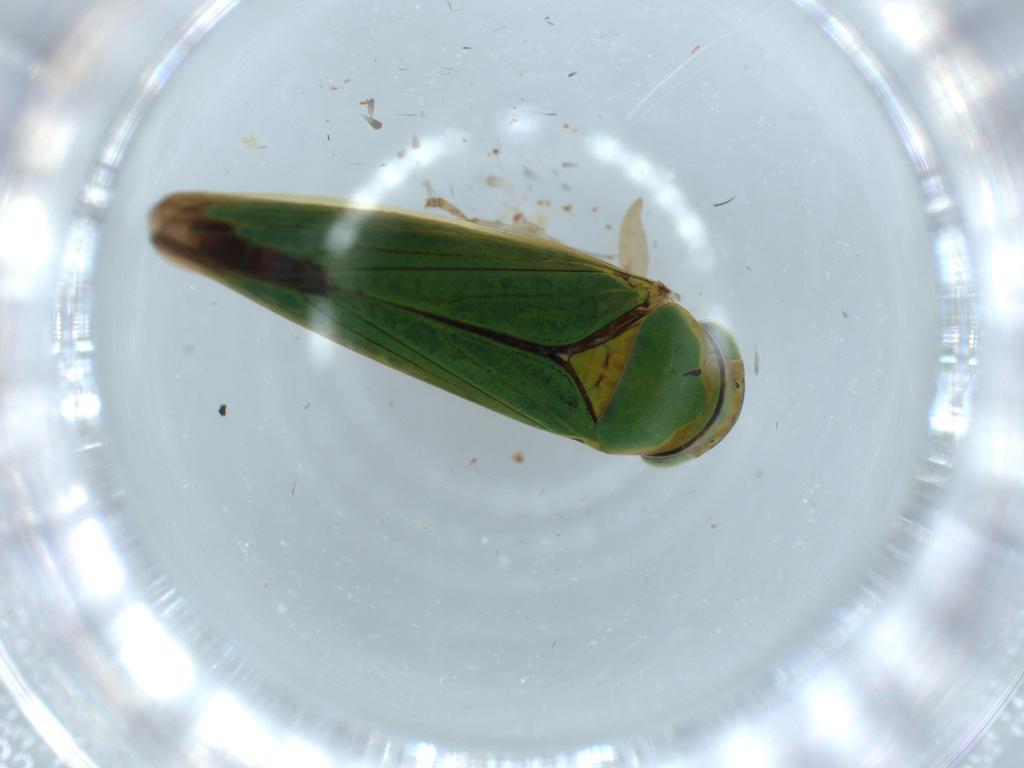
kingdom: Animalia
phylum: Arthropoda
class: Insecta
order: Hemiptera
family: Cicadellidae
